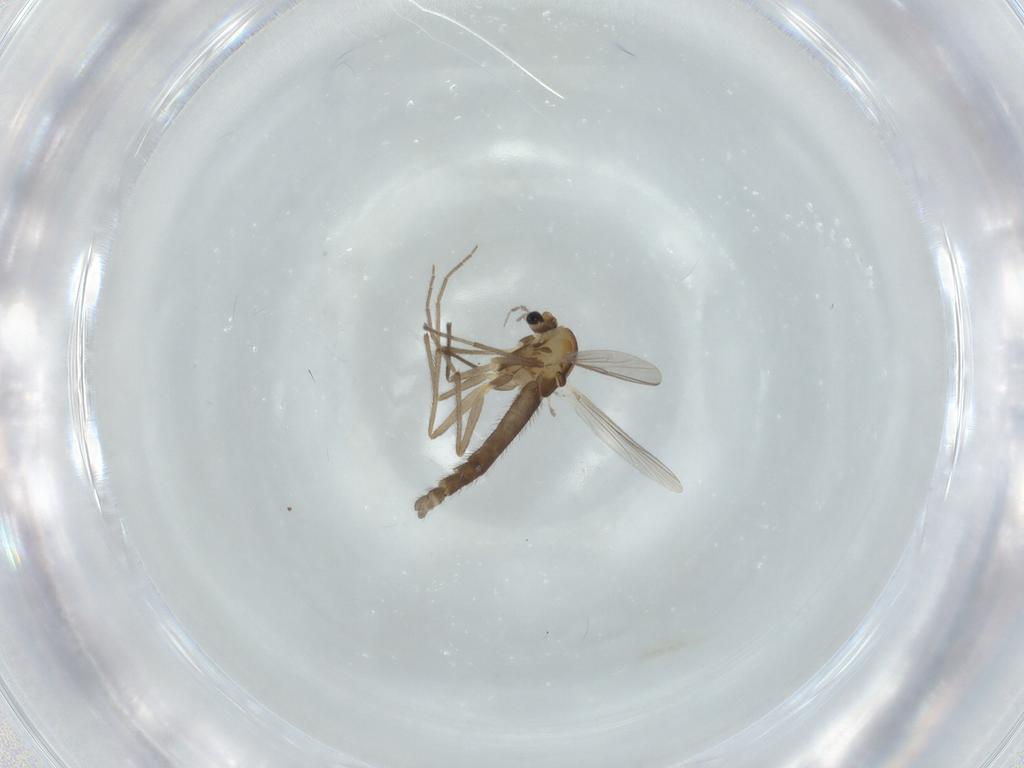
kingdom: Animalia
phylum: Arthropoda
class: Insecta
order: Diptera
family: Chironomidae
